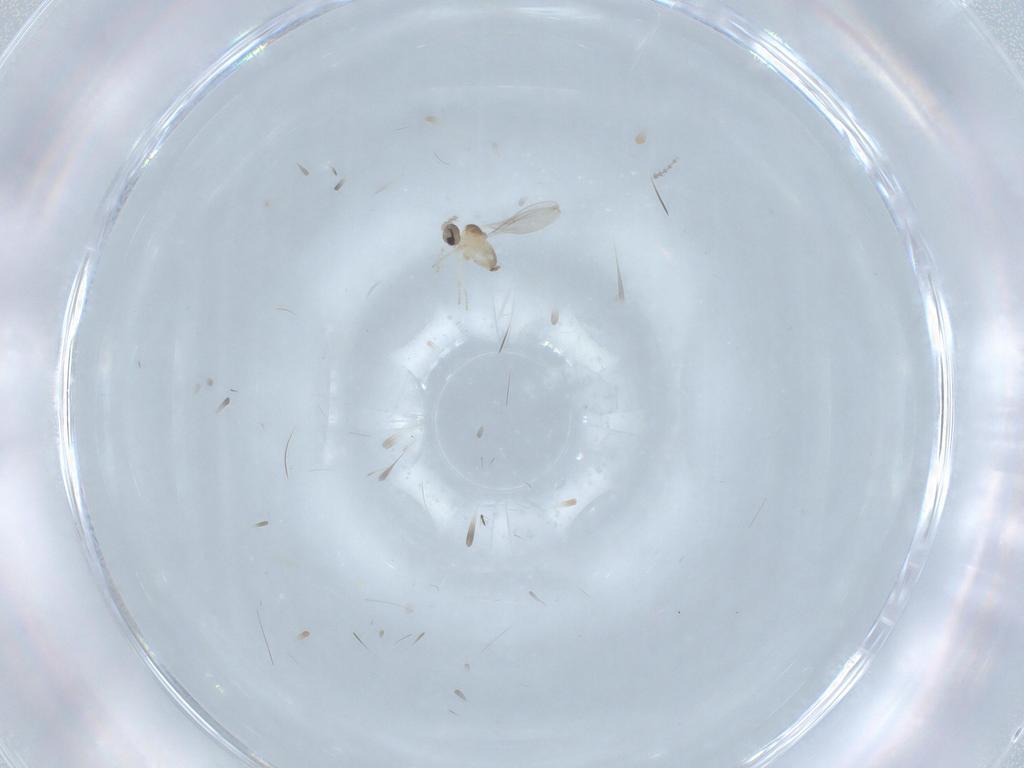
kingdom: Animalia
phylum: Arthropoda
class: Insecta
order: Diptera
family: Cecidomyiidae
